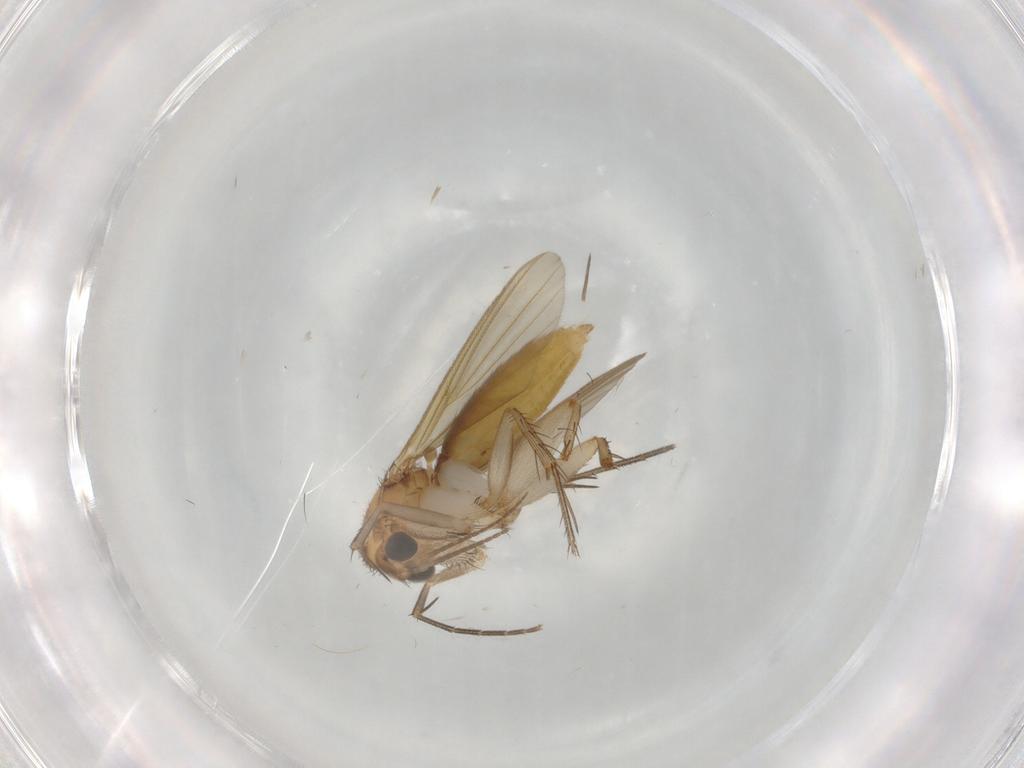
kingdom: Animalia
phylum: Arthropoda
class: Insecta
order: Diptera
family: Mycetophilidae
